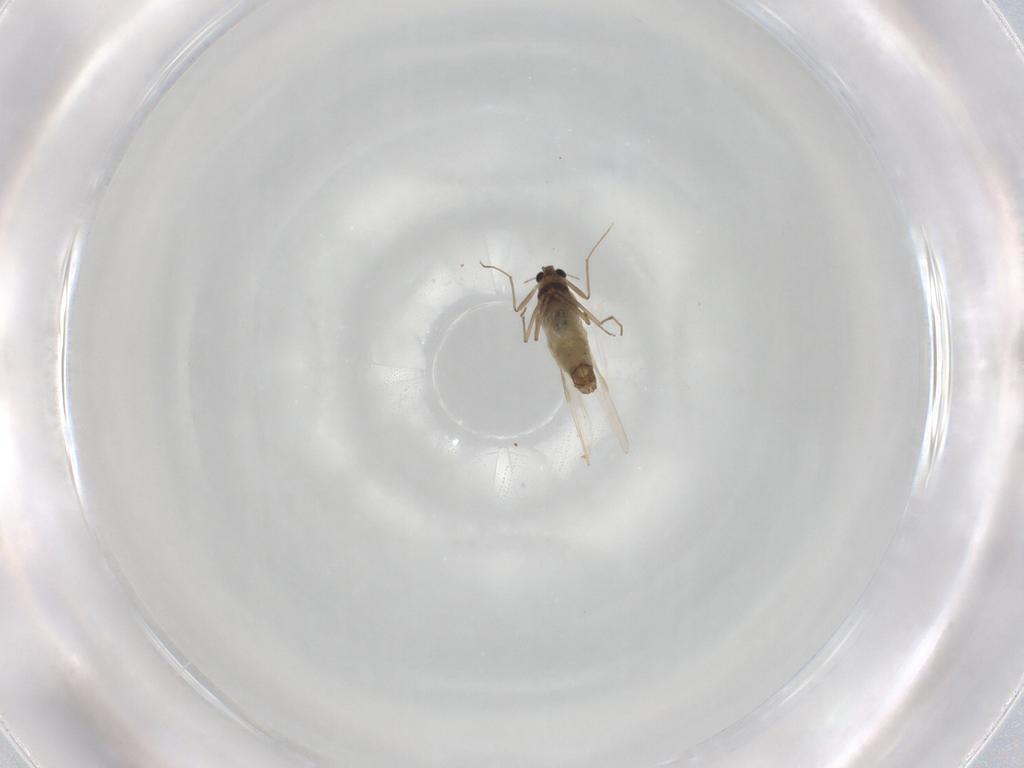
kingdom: Animalia
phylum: Arthropoda
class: Insecta
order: Diptera
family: Chironomidae
